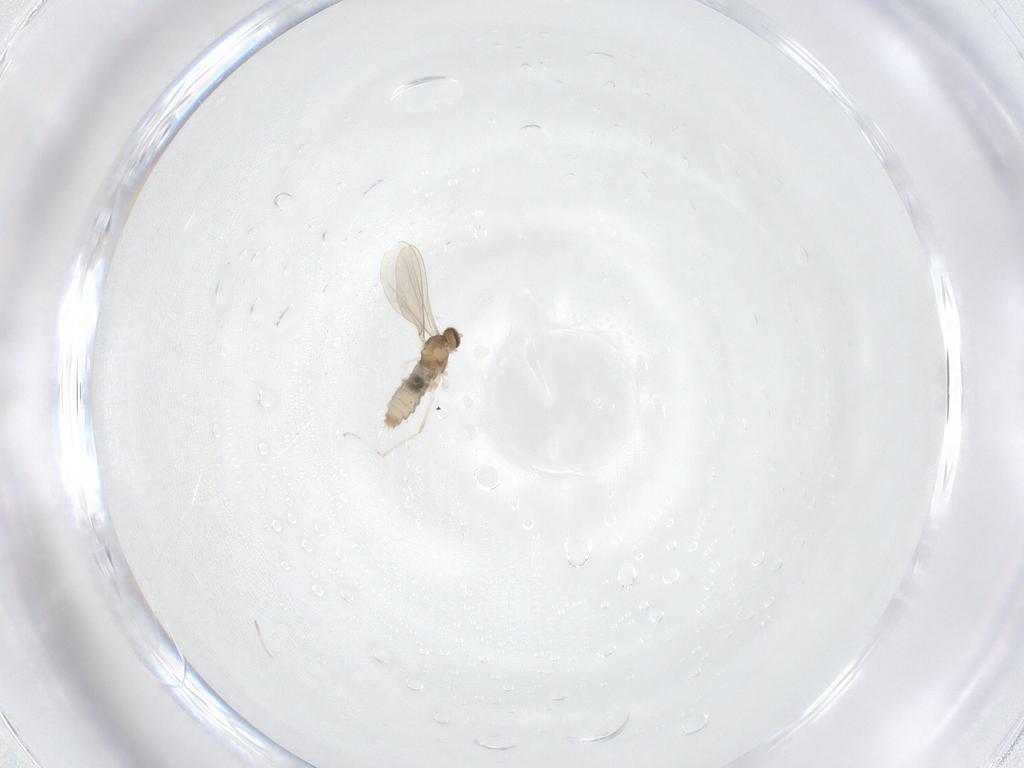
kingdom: Animalia
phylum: Arthropoda
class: Insecta
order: Diptera
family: Cecidomyiidae
